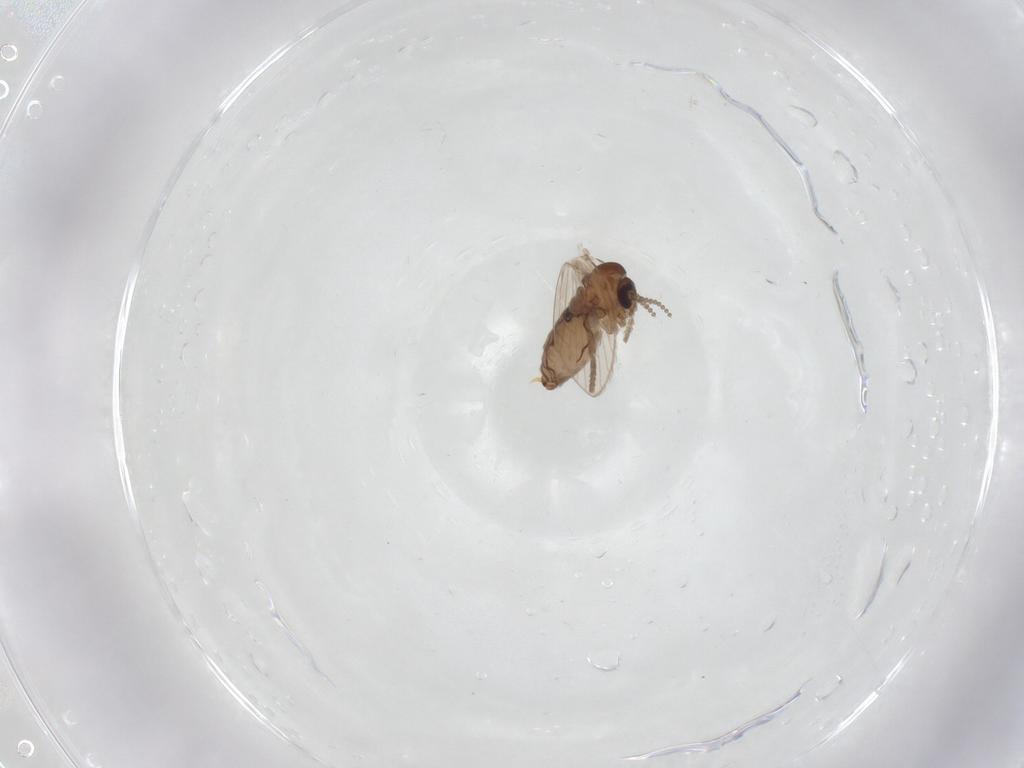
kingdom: Animalia
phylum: Arthropoda
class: Insecta
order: Diptera
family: Psychodidae
